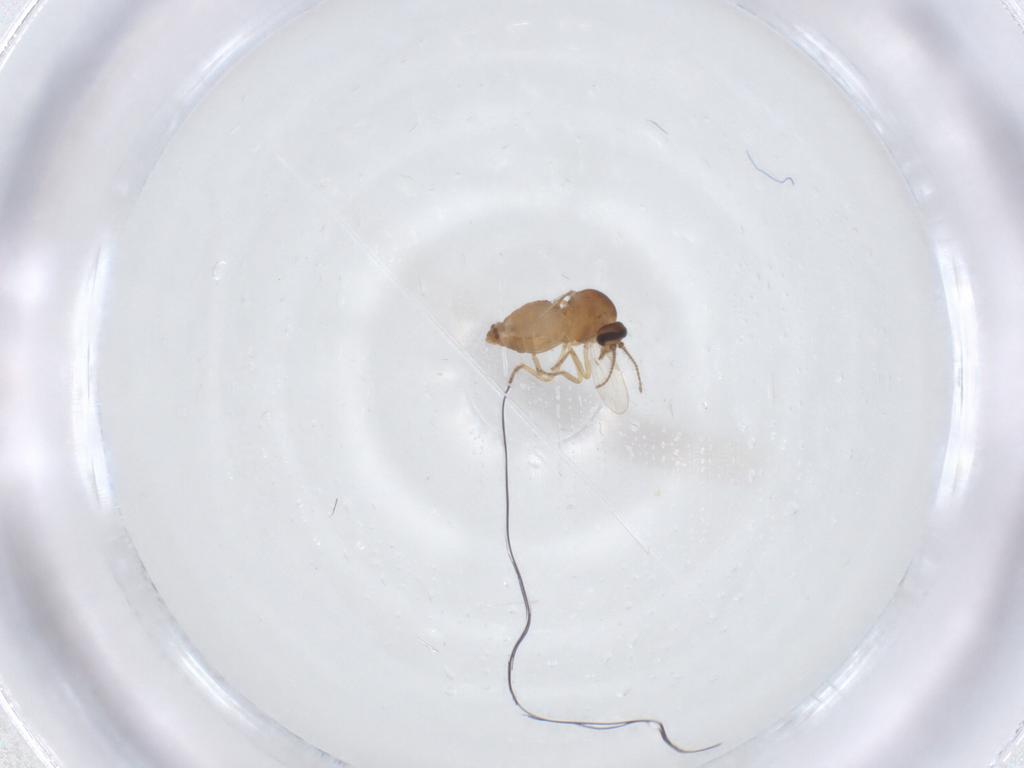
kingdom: Animalia
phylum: Arthropoda
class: Insecta
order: Diptera
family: Ceratopogonidae
